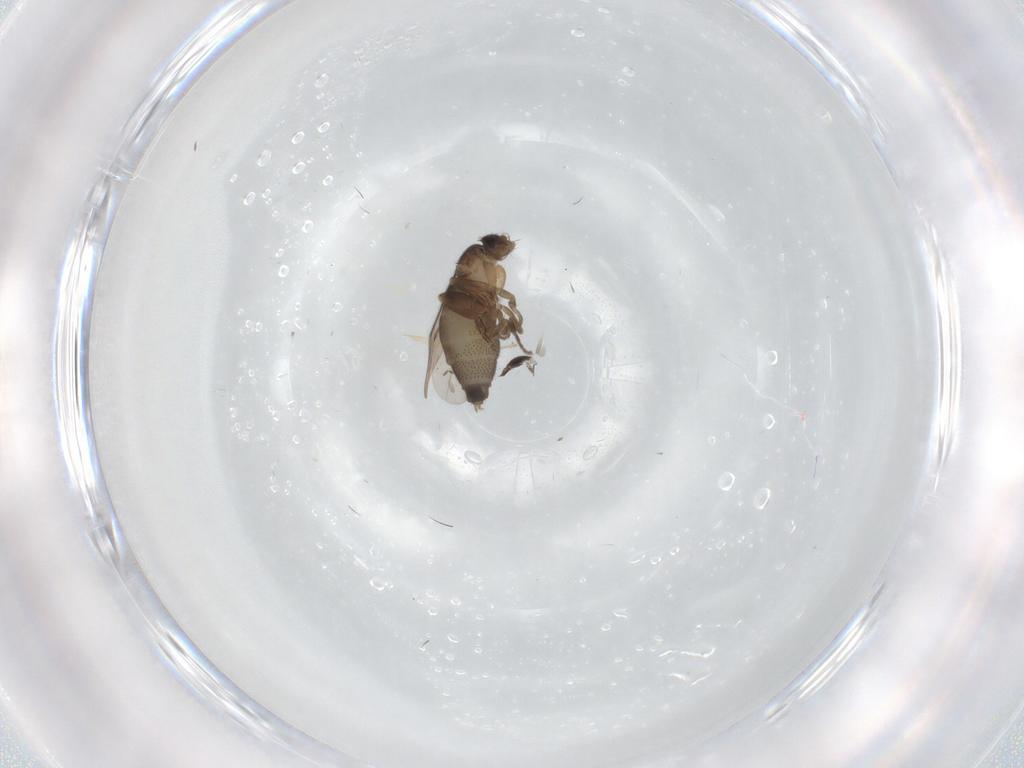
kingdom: Animalia
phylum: Arthropoda
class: Insecta
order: Diptera
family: Cecidomyiidae
